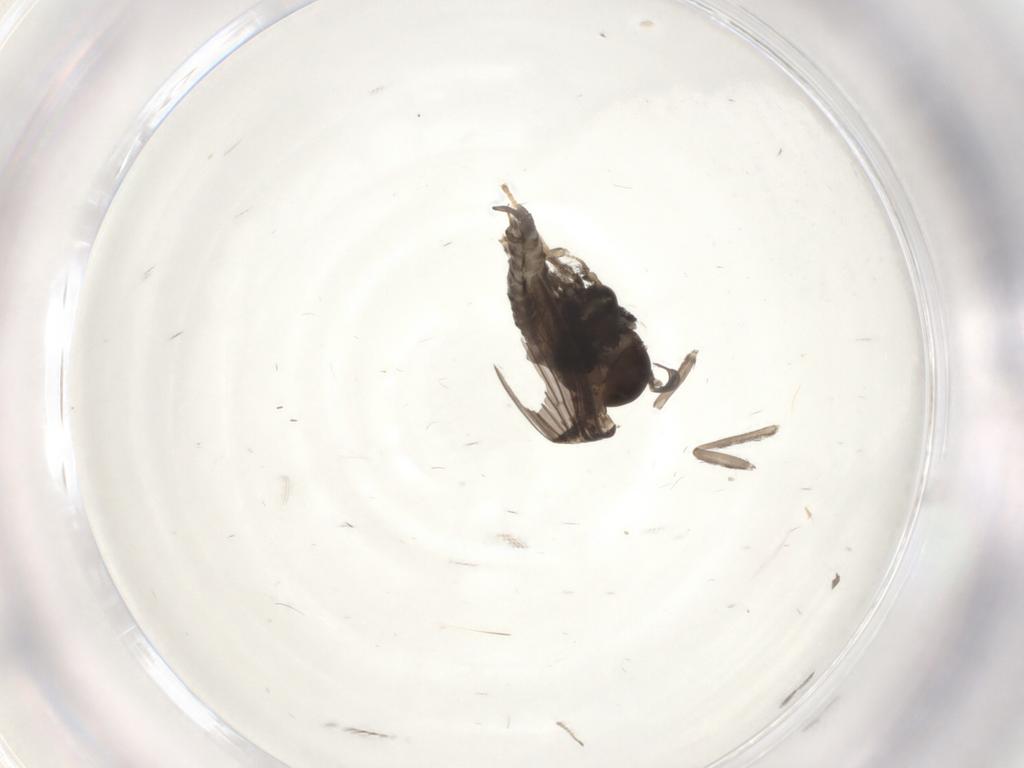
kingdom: Animalia
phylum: Arthropoda
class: Insecta
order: Diptera
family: Psychodidae
